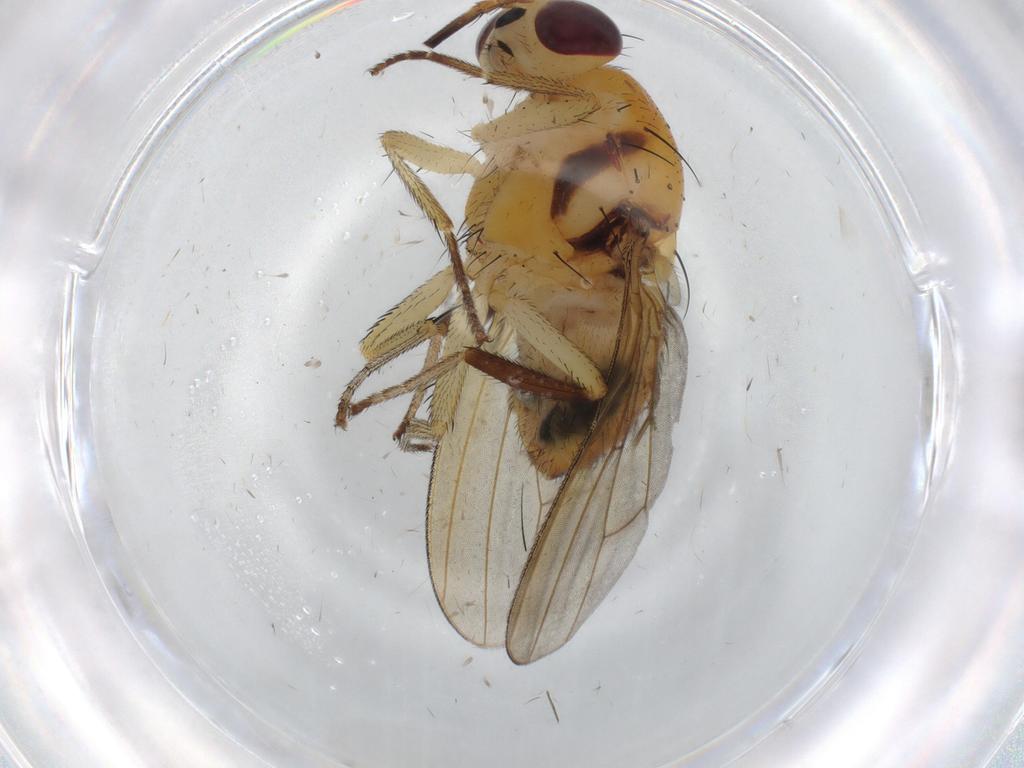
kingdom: Animalia
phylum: Arthropoda
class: Insecta
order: Diptera
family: Lauxaniidae
